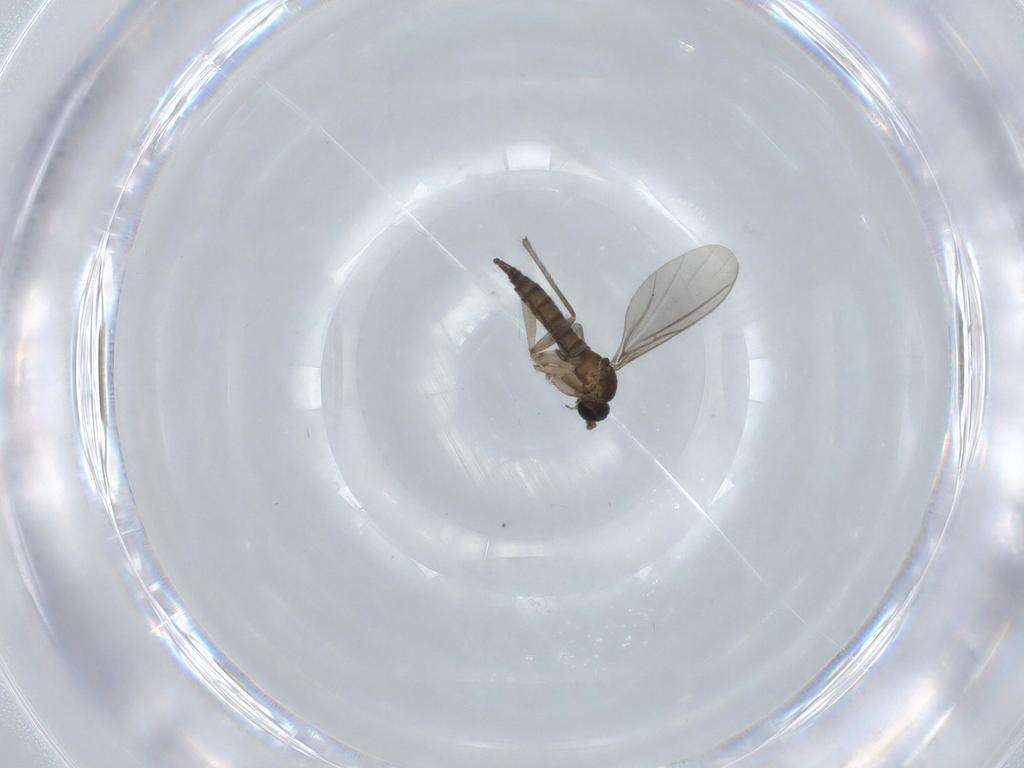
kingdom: Animalia
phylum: Arthropoda
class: Insecta
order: Diptera
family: Sciaridae
